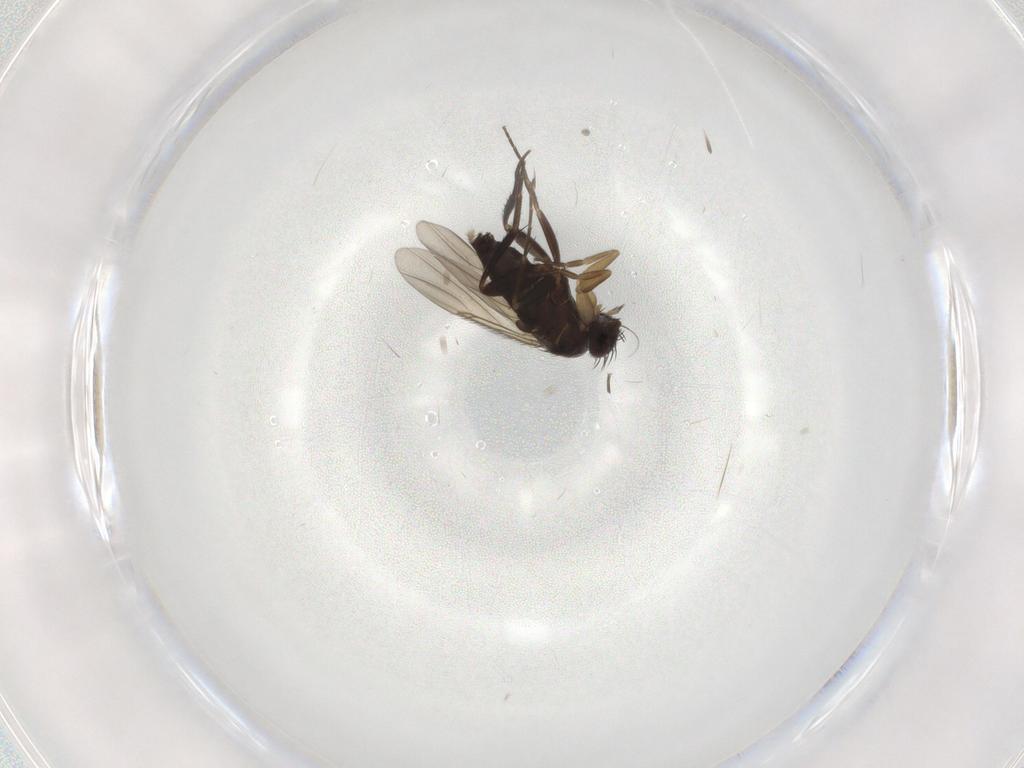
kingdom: Animalia
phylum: Arthropoda
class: Insecta
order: Diptera
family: Phoridae
